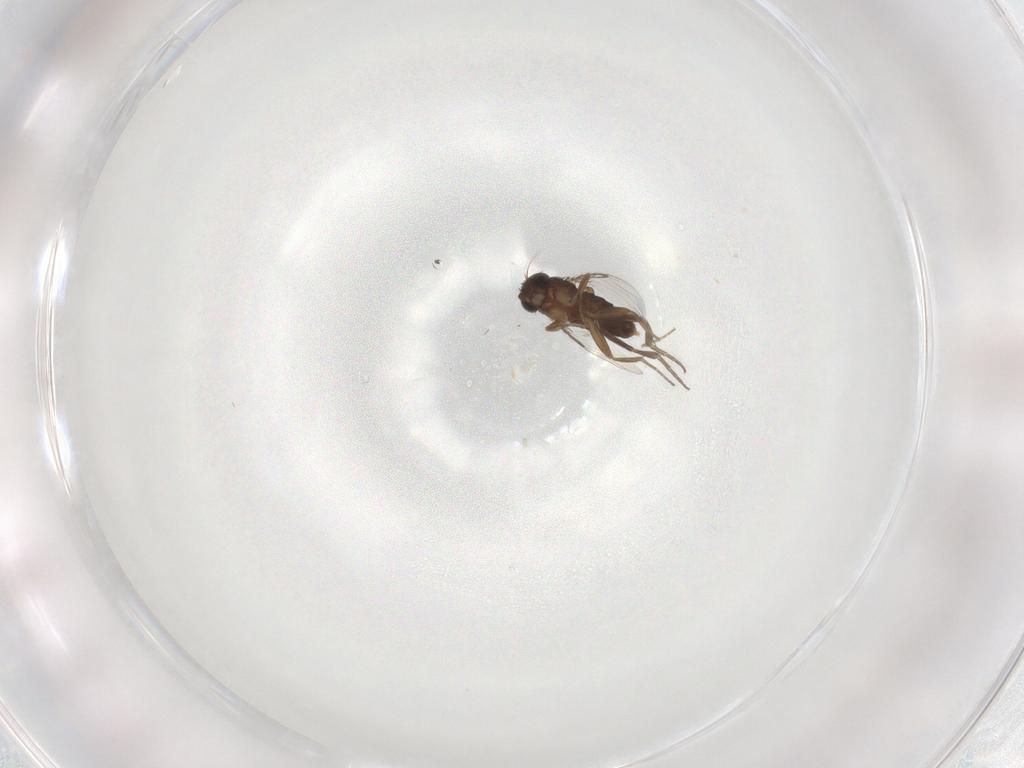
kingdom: Animalia
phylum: Arthropoda
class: Insecta
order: Diptera
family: Phoridae
